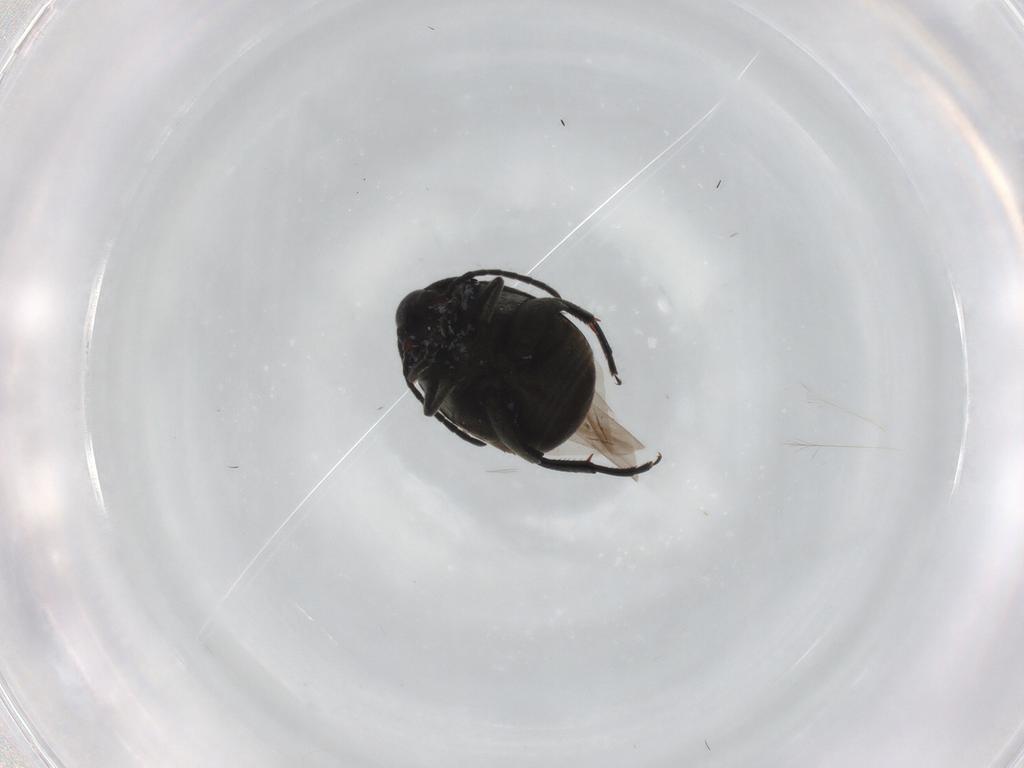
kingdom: Animalia
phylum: Arthropoda
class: Insecta
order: Coleoptera
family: Chrysomelidae
